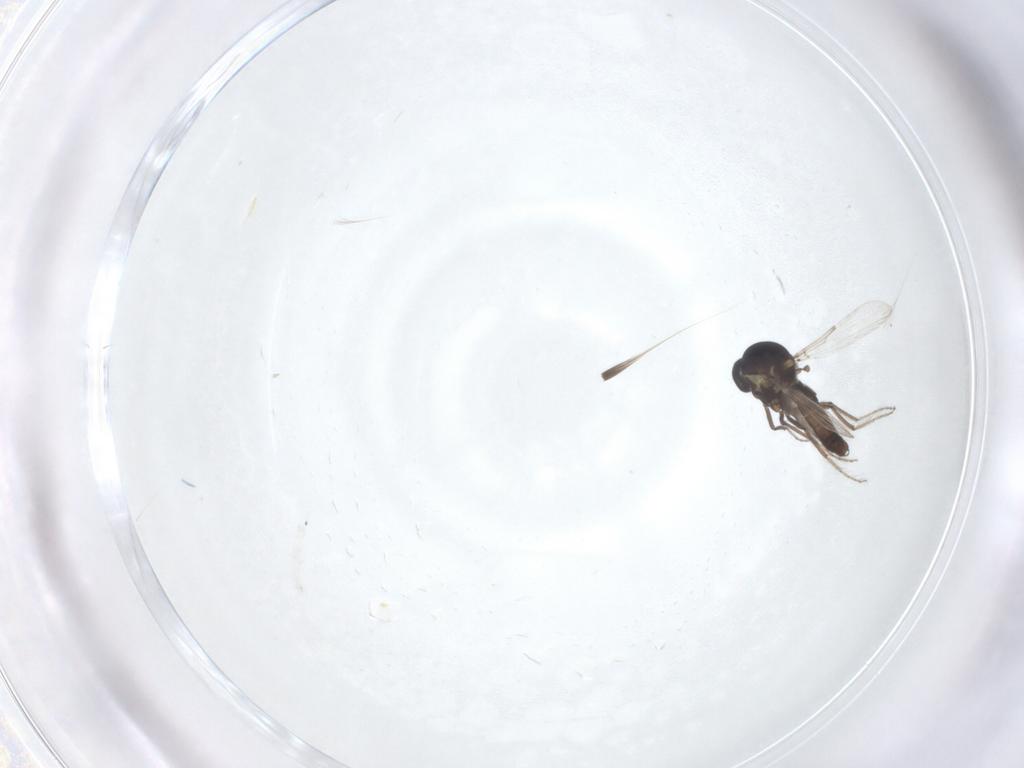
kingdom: Animalia
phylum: Arthropoda
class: Insecta
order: Diptera
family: Ceratopogonidae
